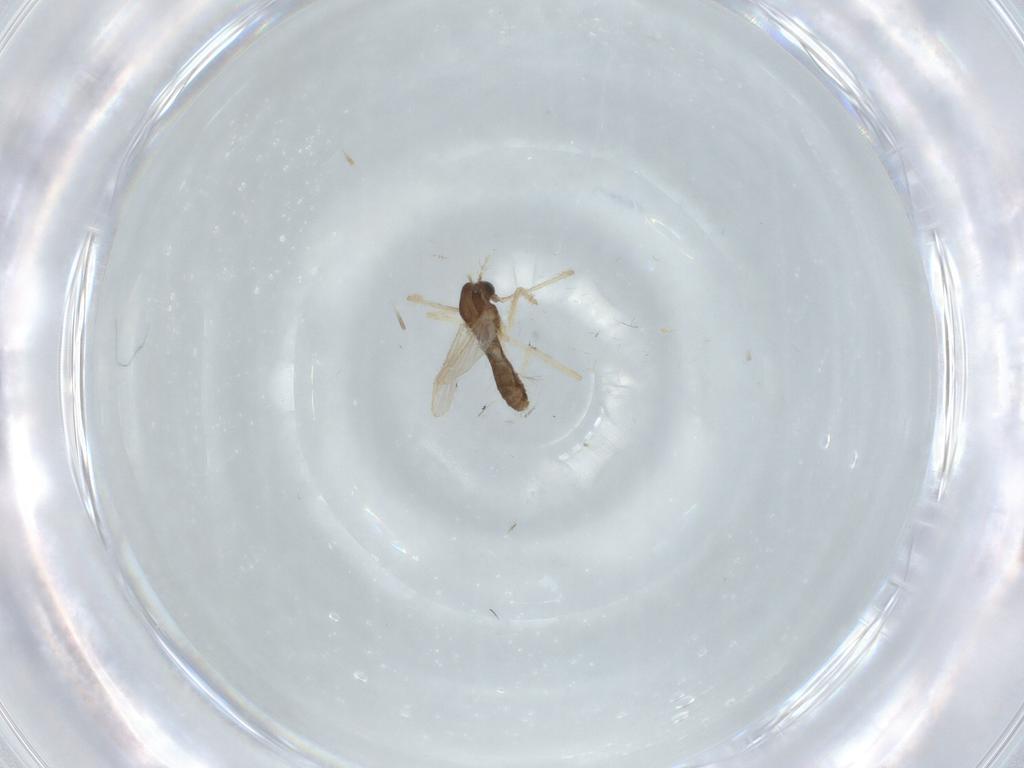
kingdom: Animalia
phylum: Arthropoda
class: Insecta
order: Diptera
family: Chironomidae
